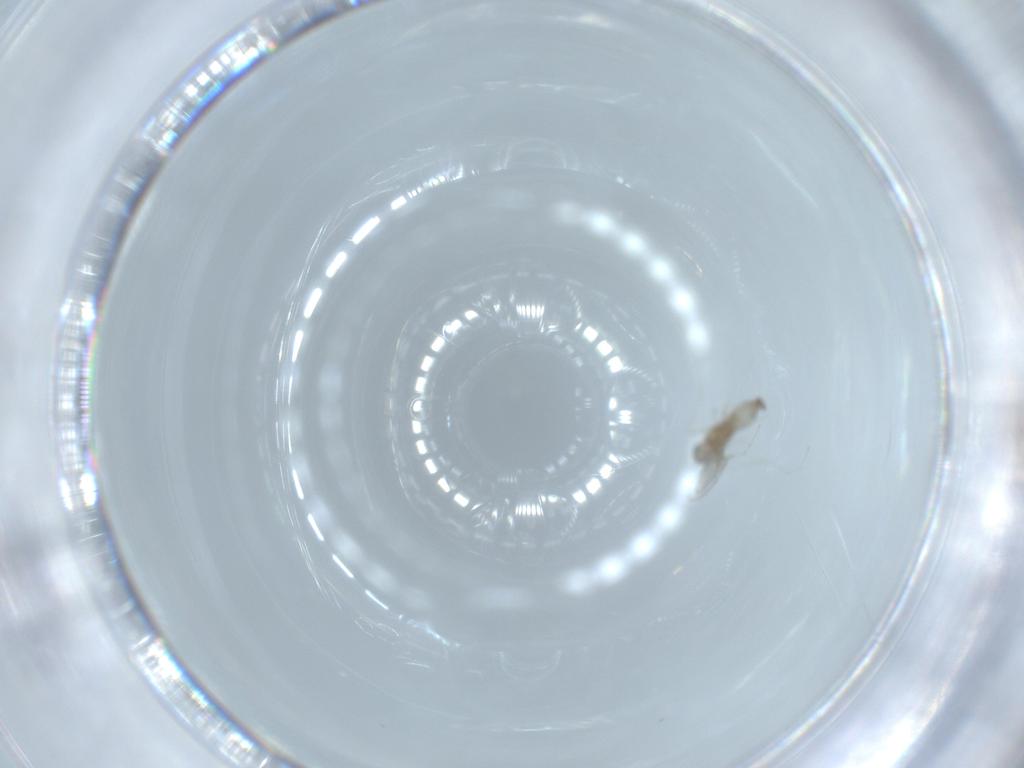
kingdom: Animalia
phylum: Arthropoda
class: Insecta
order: Diptera
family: Cecidomyiidae
